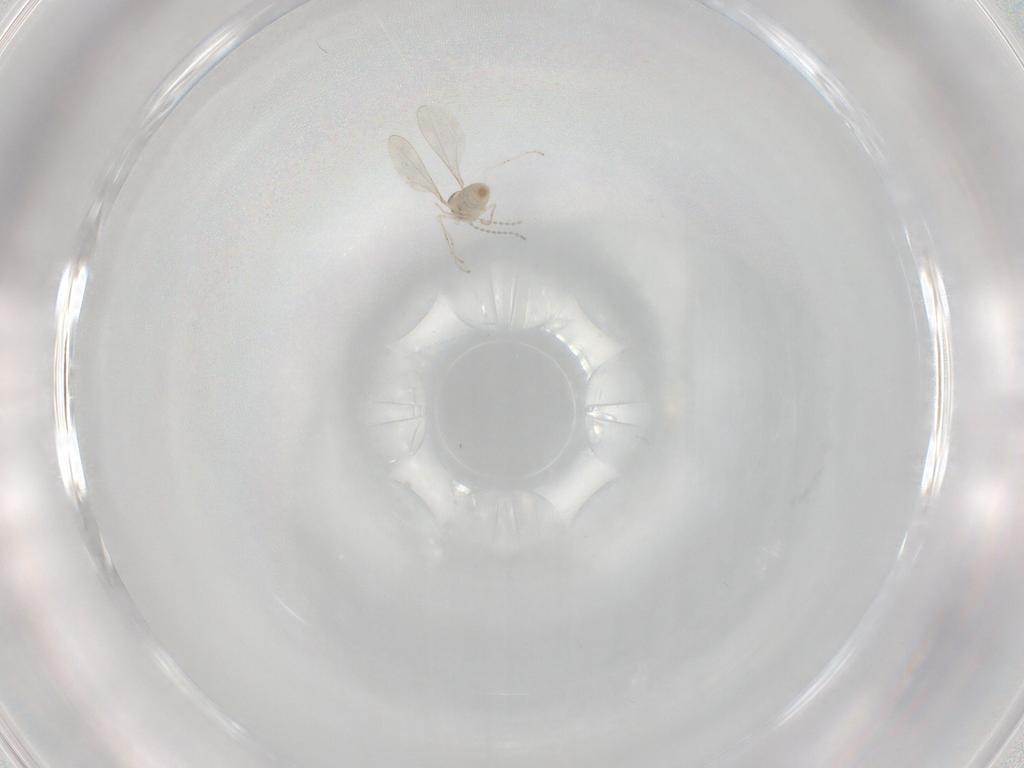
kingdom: Animalia
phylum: Arthropoda
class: Insecta
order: Diptera
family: Cecidomyiidae
